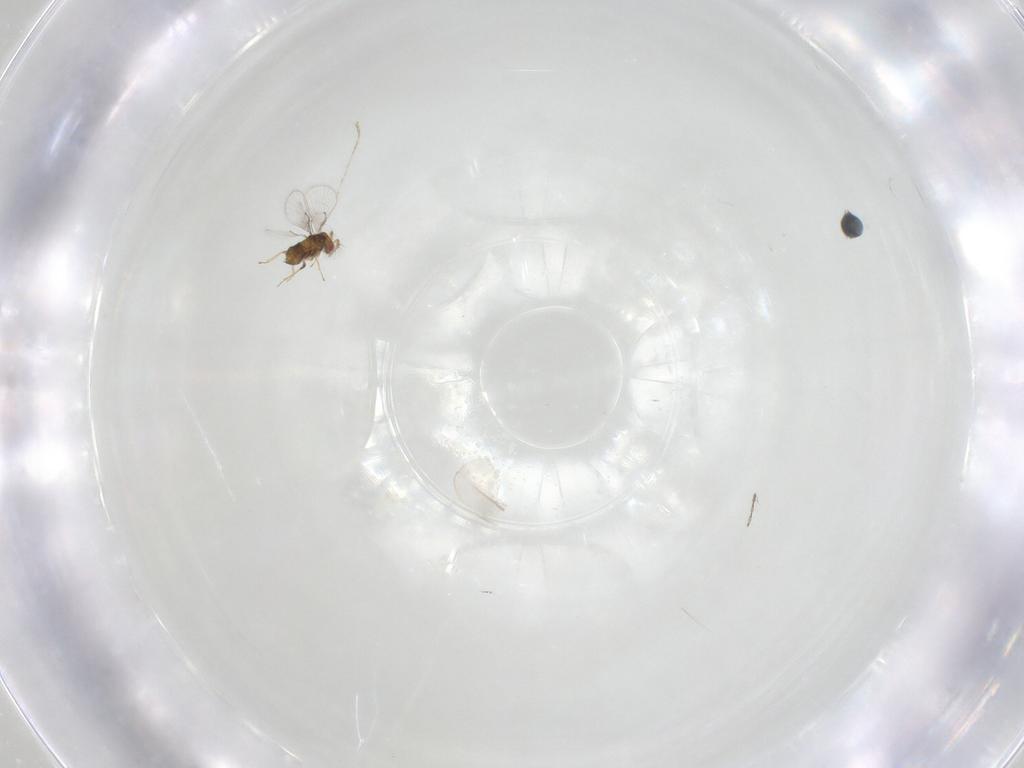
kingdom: Animalia
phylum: Arthropoda
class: Insecta
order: Hymenoptera
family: Trichogrammatidae
